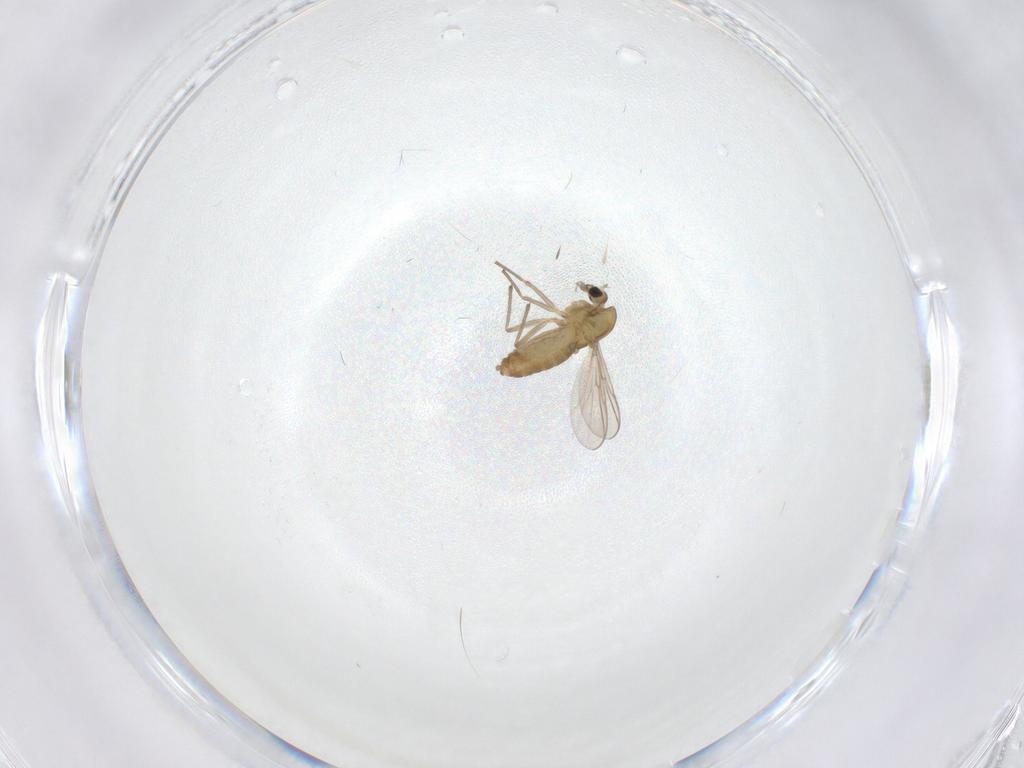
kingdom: Animalia
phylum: Arthropoda
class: Insecta
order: Diptera
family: Chironomidae
